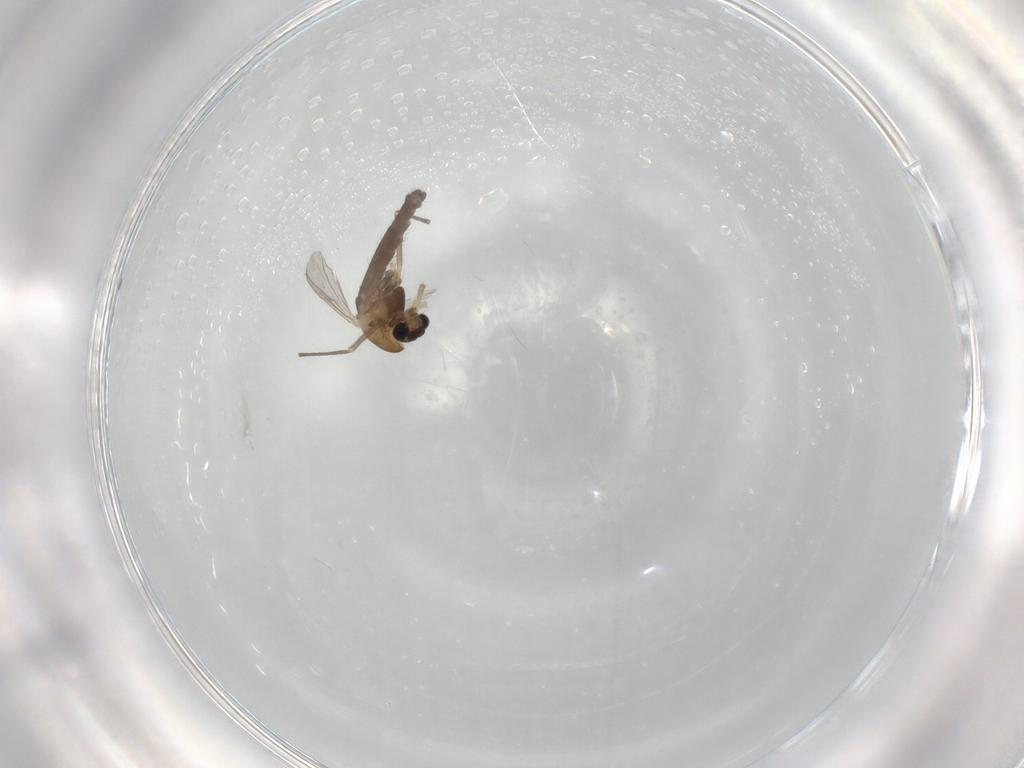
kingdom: Animalia
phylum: Arthropoda
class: Insecta
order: Diptera
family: Chironomidae
